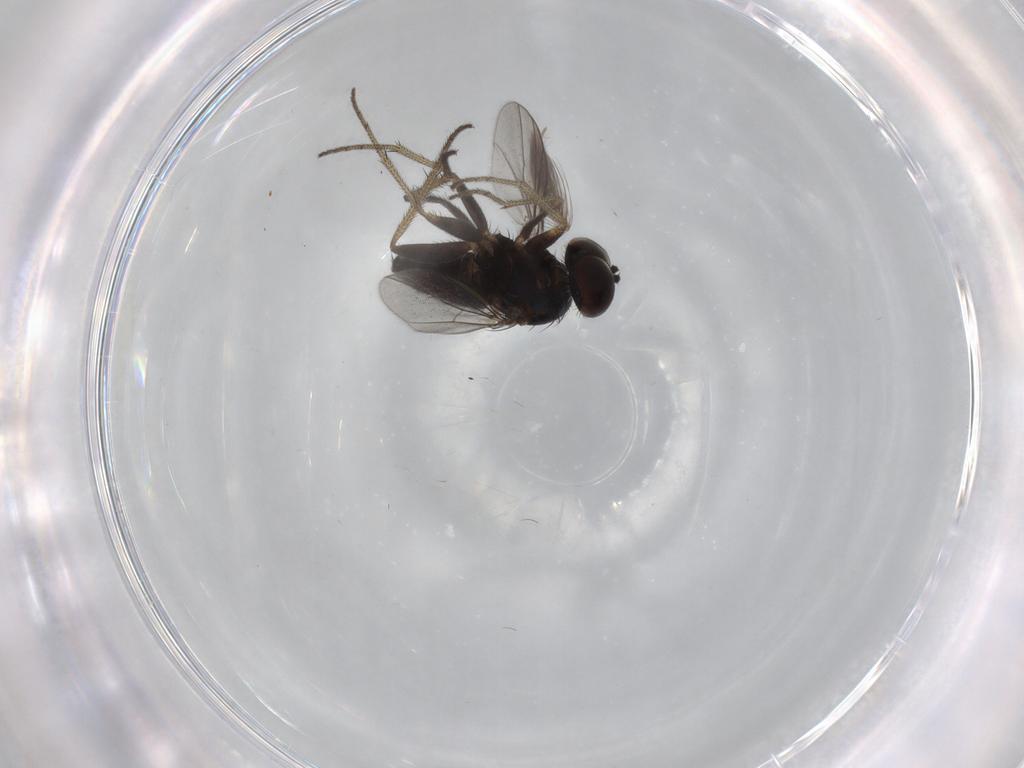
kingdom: Animalia
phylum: Arthropoda
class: Insecta
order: Diptera
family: Ceratopogonidae
